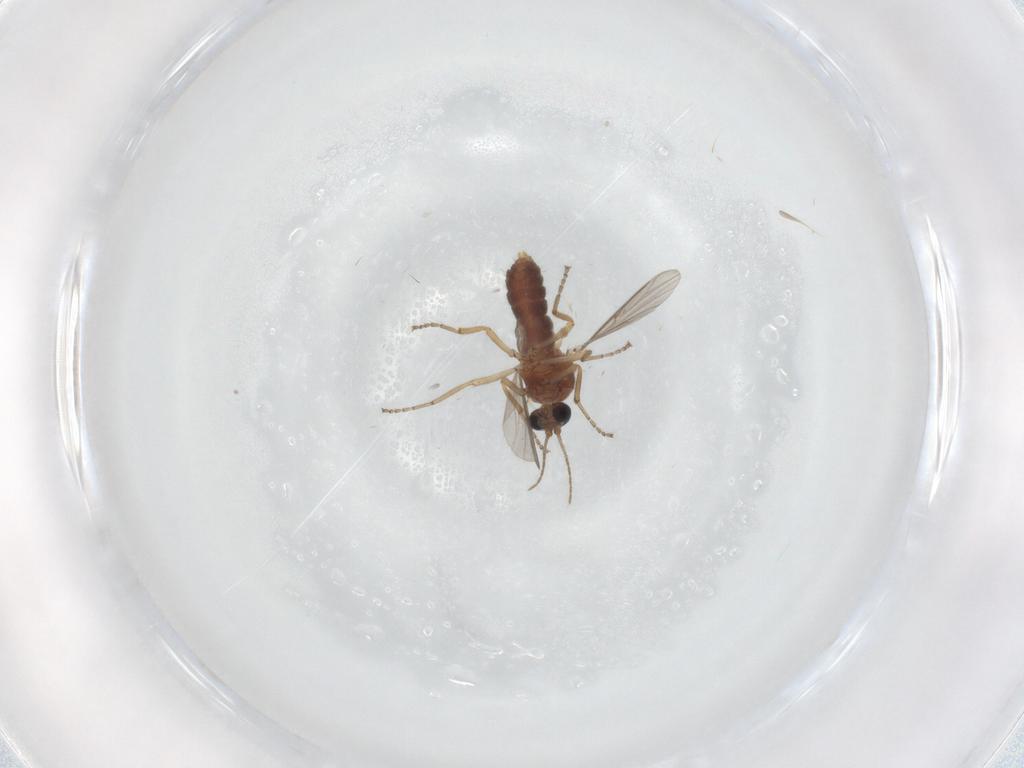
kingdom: Animalia
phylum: Arthropoda
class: Insecta
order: Diptera
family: Ceratopogonidae
